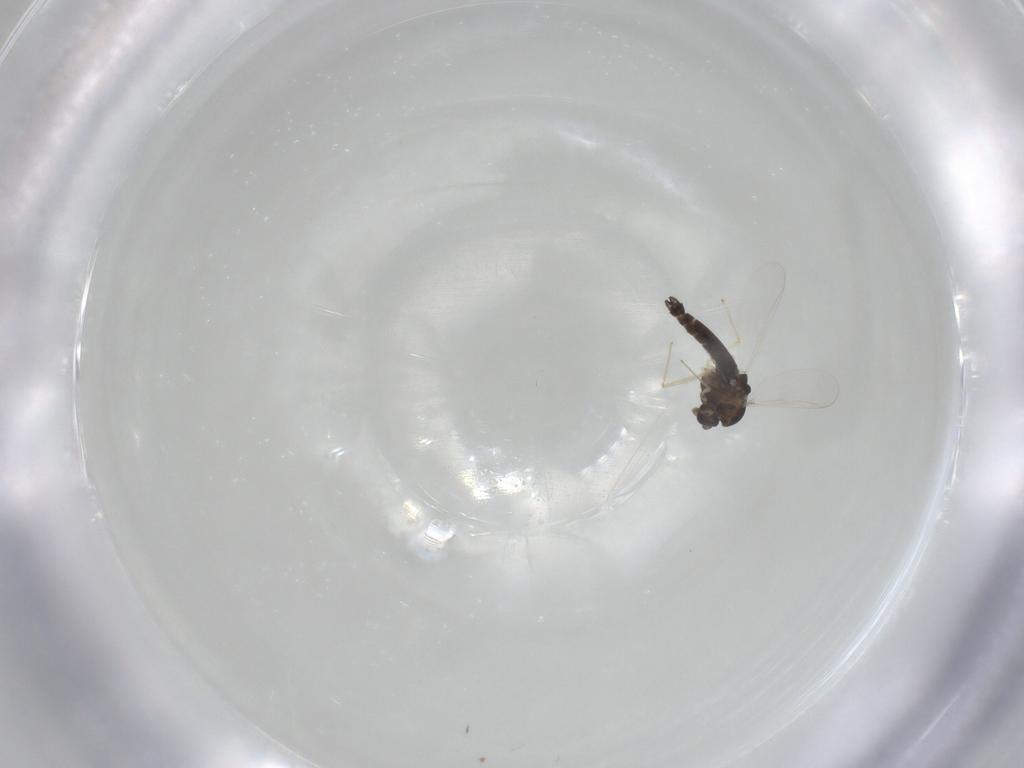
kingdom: Animalia
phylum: Arthropoda
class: Insecta
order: Diptera
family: Chironomidae
